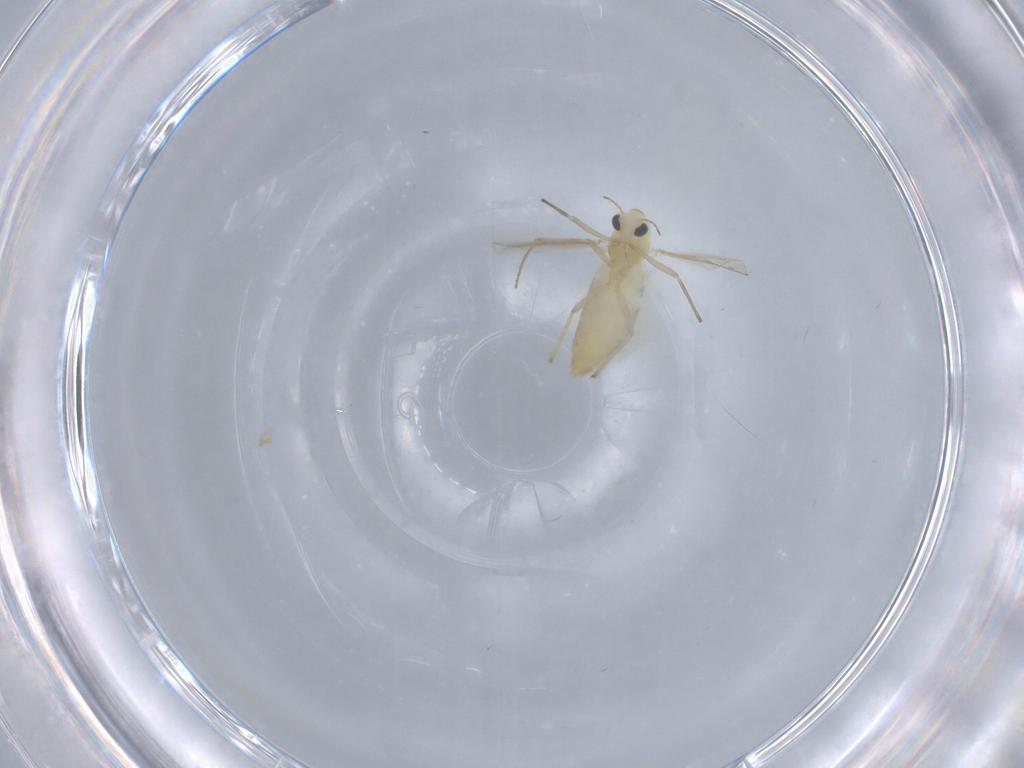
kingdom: Animalia
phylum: Arthropoda
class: Insecta
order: Diptera
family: Chironomidae
